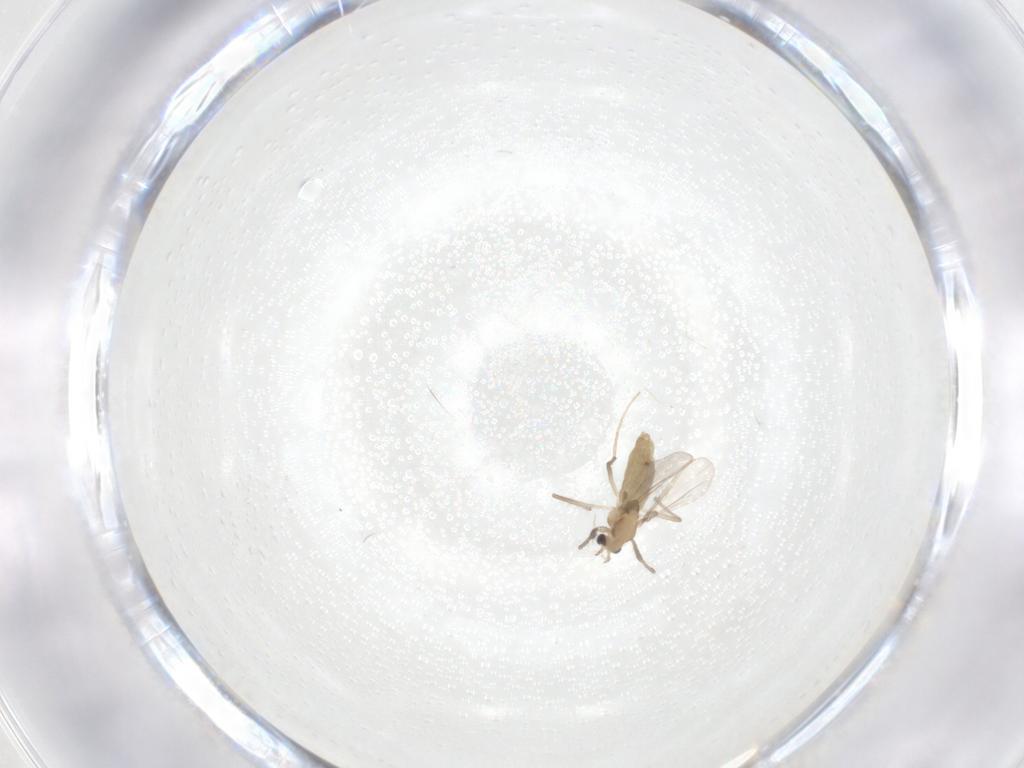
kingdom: Animalia
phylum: Arthropoda
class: Insecta
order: Diptera
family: Chironomidae
